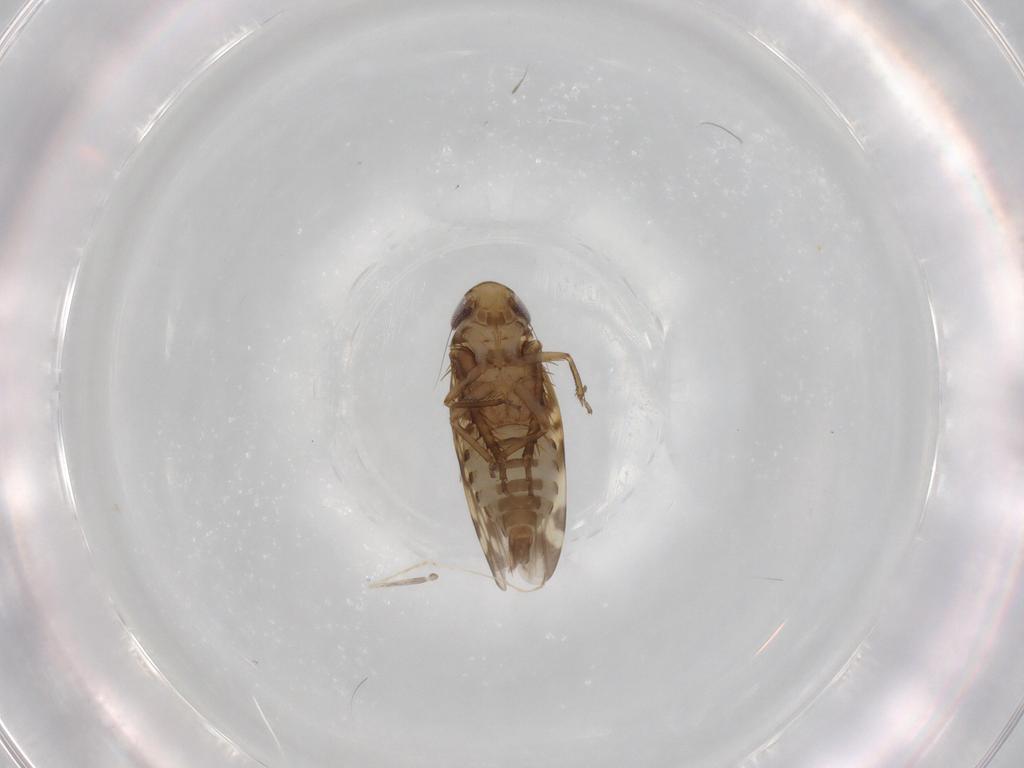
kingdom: Animalia
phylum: Arthropoda
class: Insecta
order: Hemiptera
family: Cicadellidae
